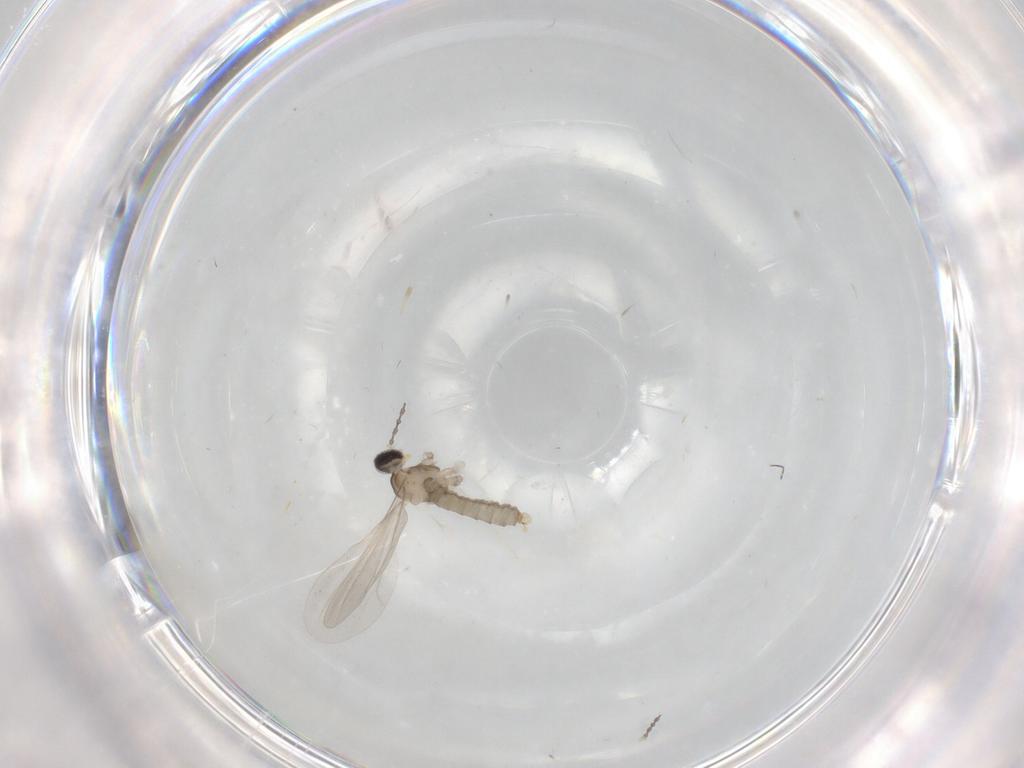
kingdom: Animalia
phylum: Arthropoda
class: Insecta
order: Diptera
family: Cecidomyiidae
